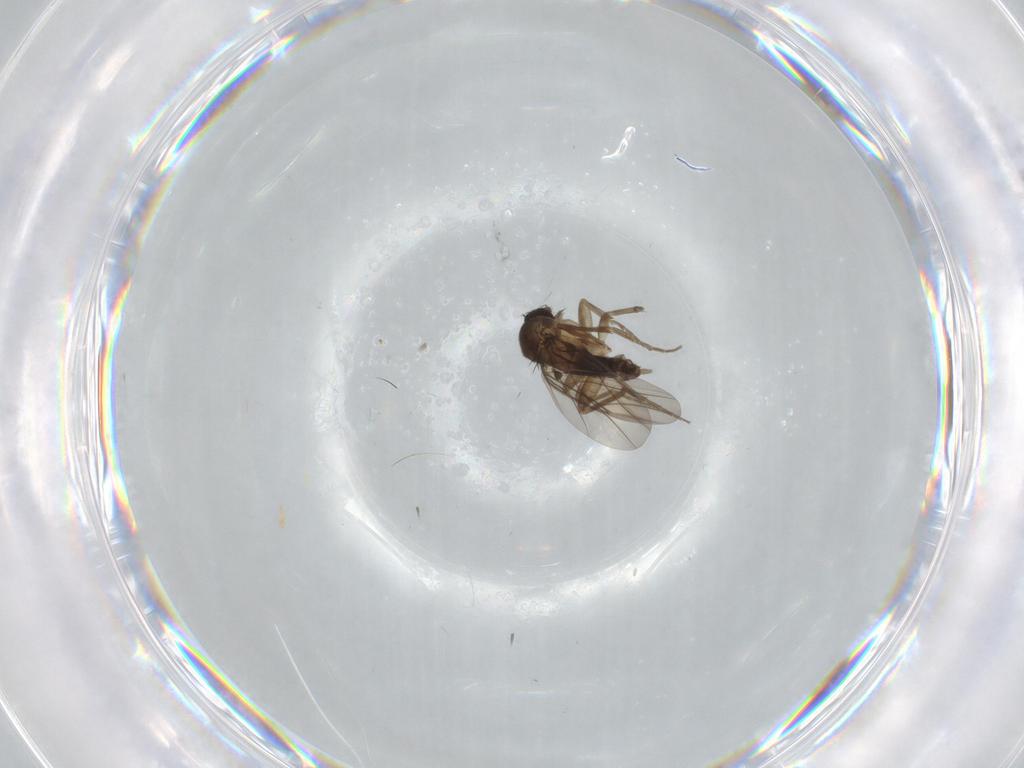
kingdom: Animalia
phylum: Arthropoda
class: Insecta
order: Diptera
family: Phoridae
